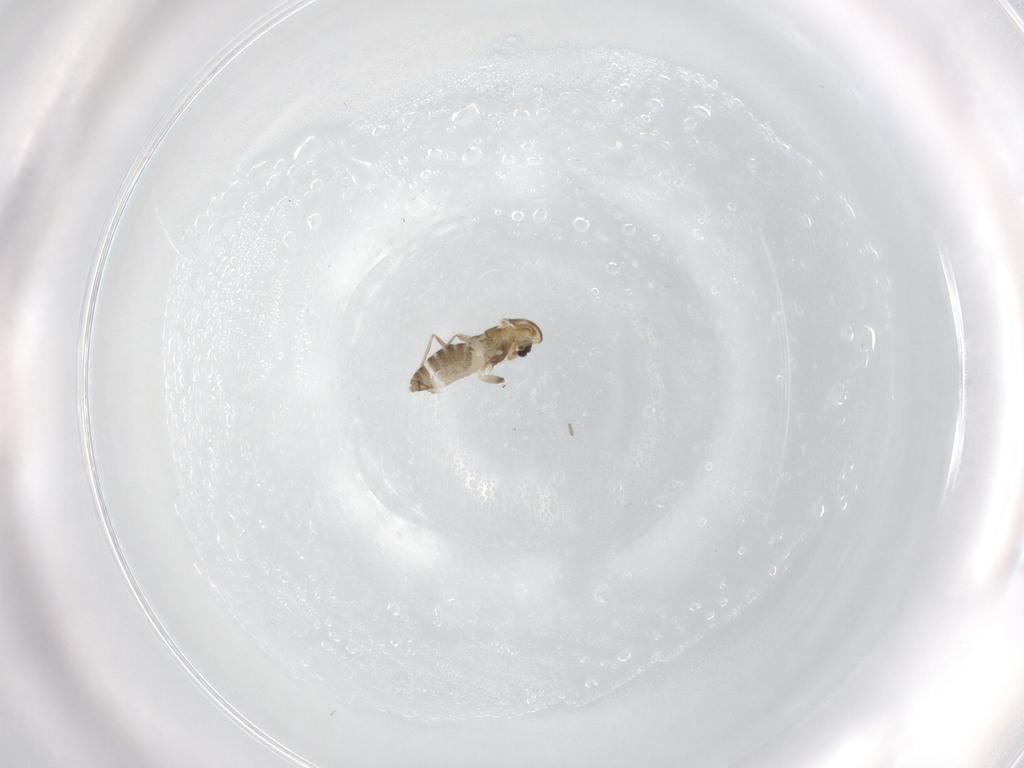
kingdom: Animalia
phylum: Arthropoda
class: Insecta
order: Diptera
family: Chironomidae
